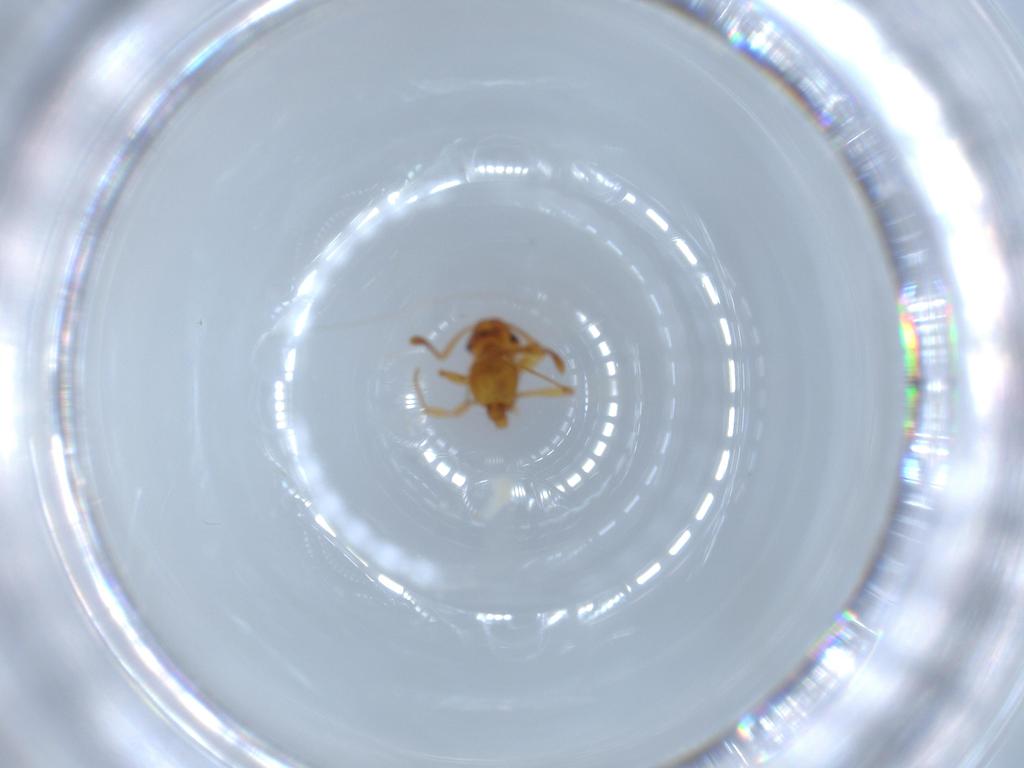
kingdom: Animalia
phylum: Arthropoda
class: Insecta
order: Hymenoptera
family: Formicidae
